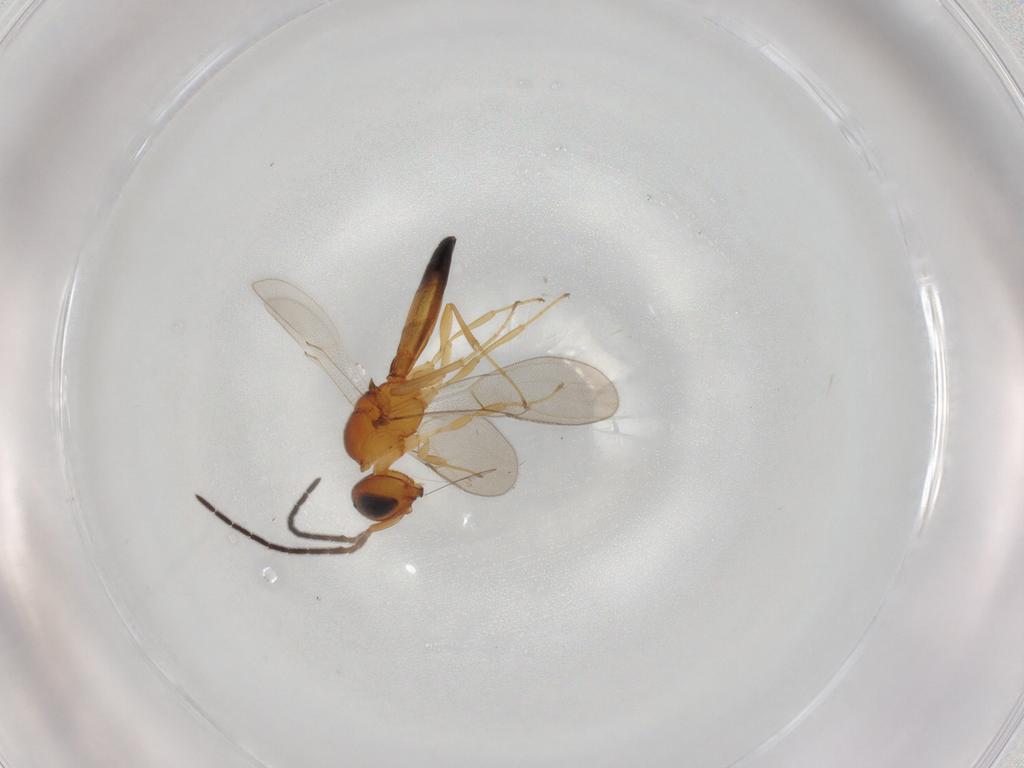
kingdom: Animalia
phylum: Arthropoda
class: Insecta
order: Hymenoptera
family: Scelionidae
